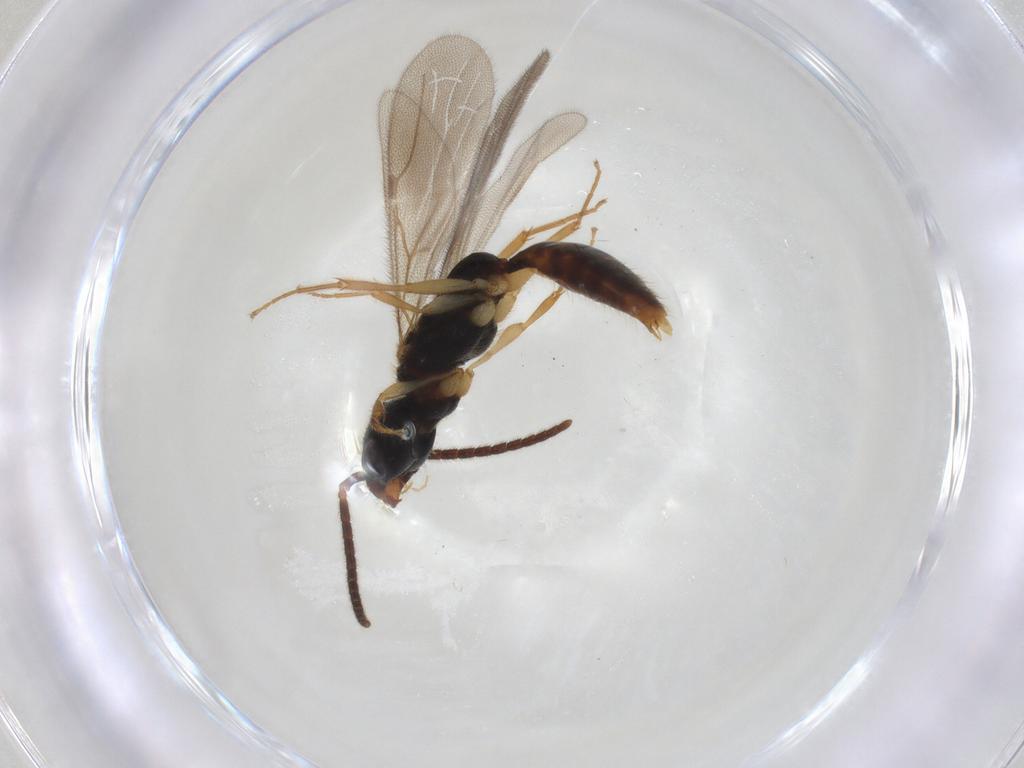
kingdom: Animalia
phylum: Arthropoda
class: Insecta
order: Hymenoptera
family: Bethylidae
